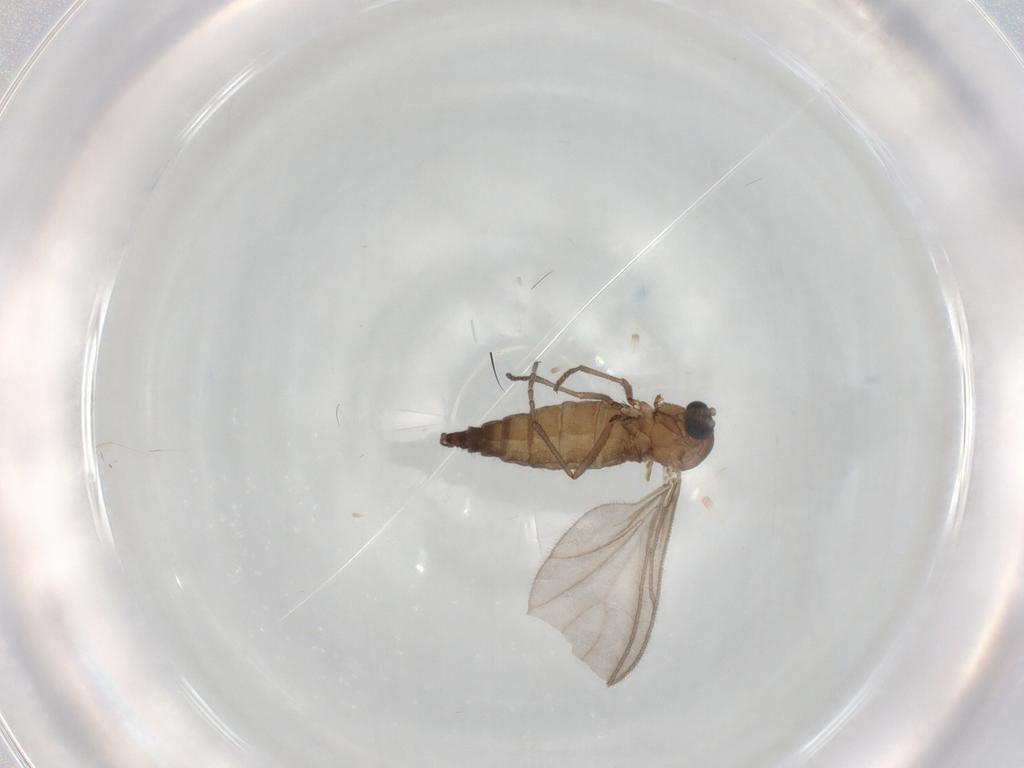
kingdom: Animalia
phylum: Arthropoda
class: Insecta
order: Diptera
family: Sciaridae
